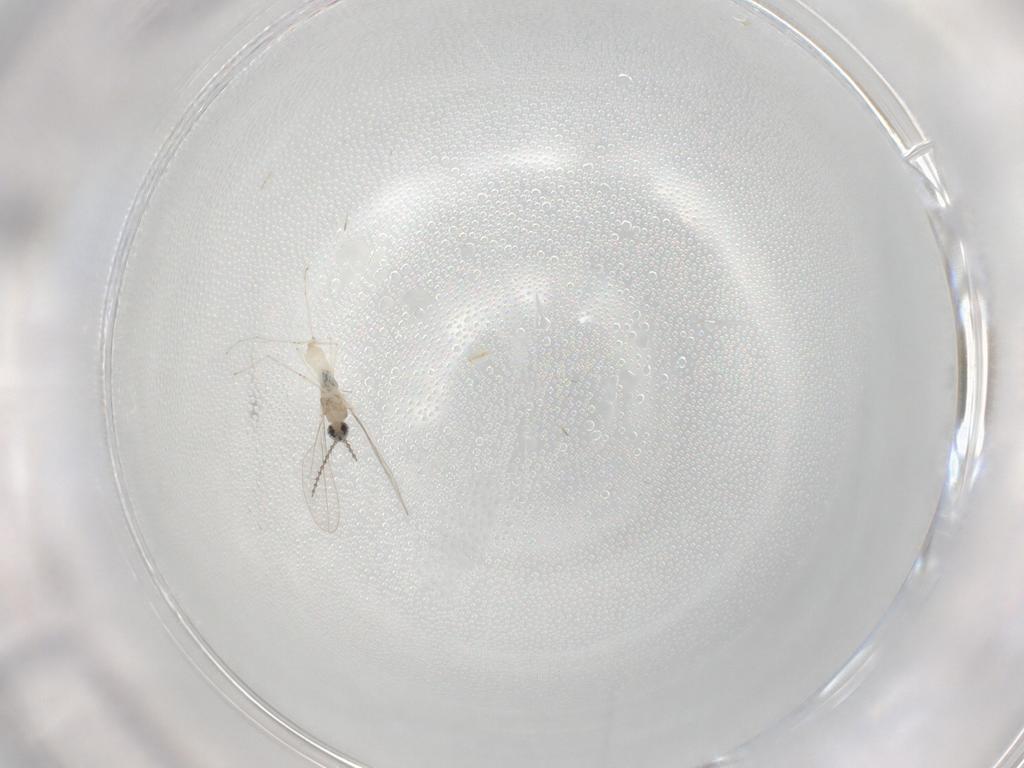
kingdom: Animalia
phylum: Arthropoda
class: Insecta
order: Diptera
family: Cecidomyiidae
